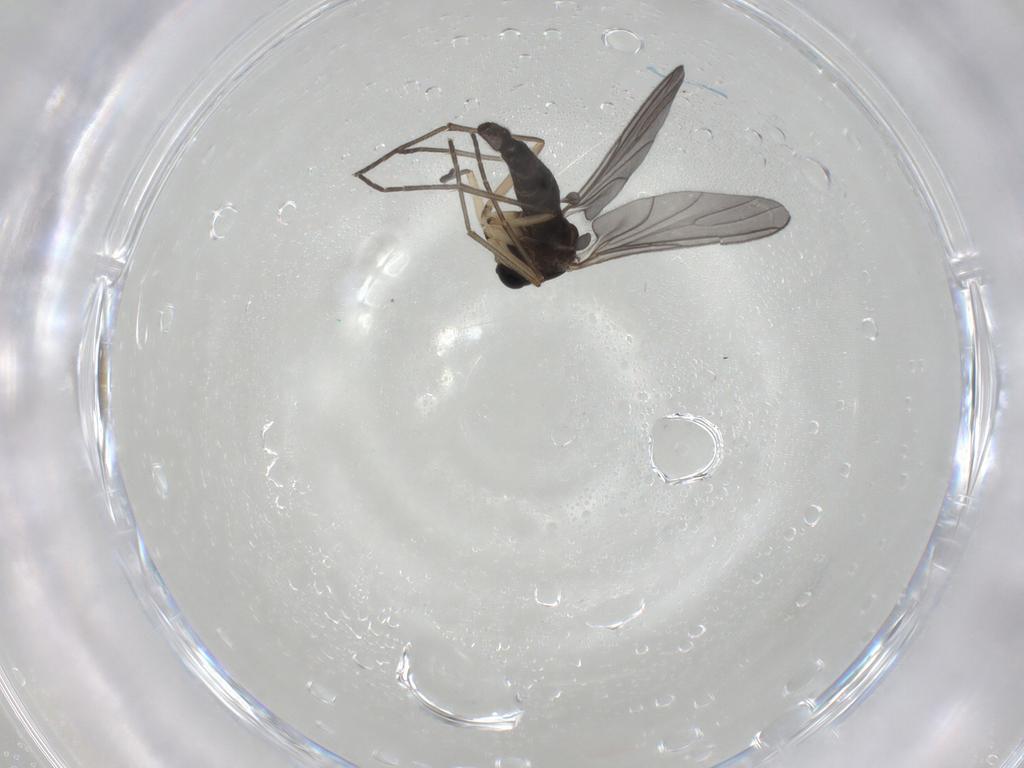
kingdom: Animalia
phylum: Arthropoda
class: Insecta
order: Diptera
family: Sciaridae
